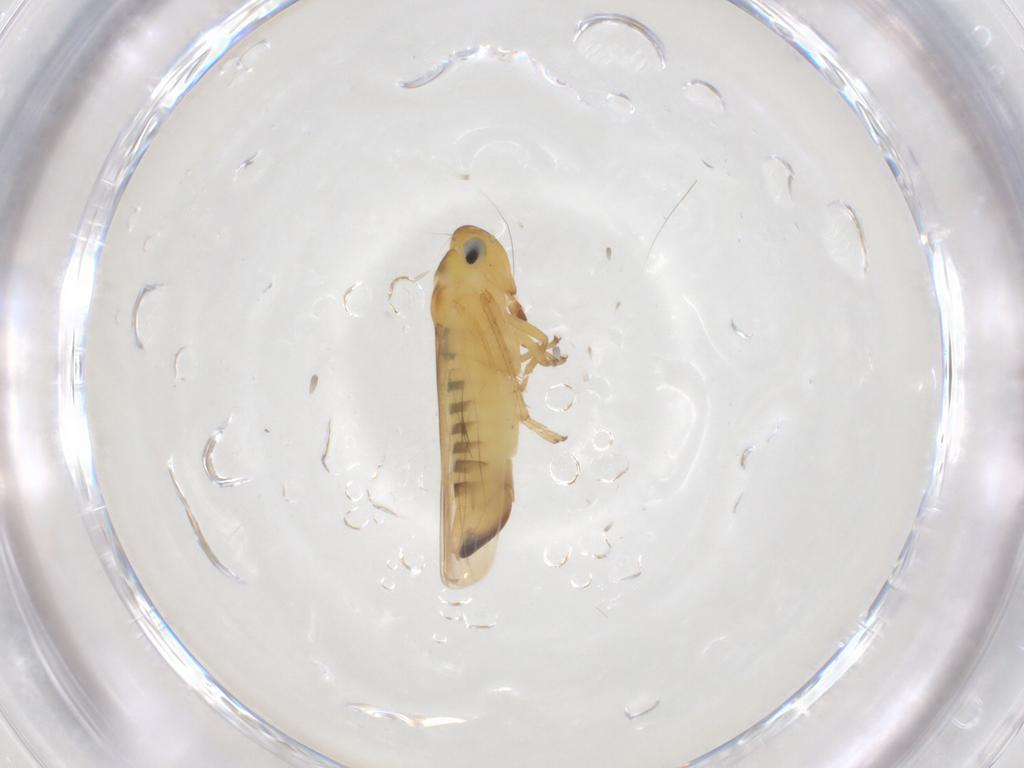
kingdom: Animalia
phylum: Arthropoda
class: Insecta
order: Hemiptera
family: Cicadellidae
